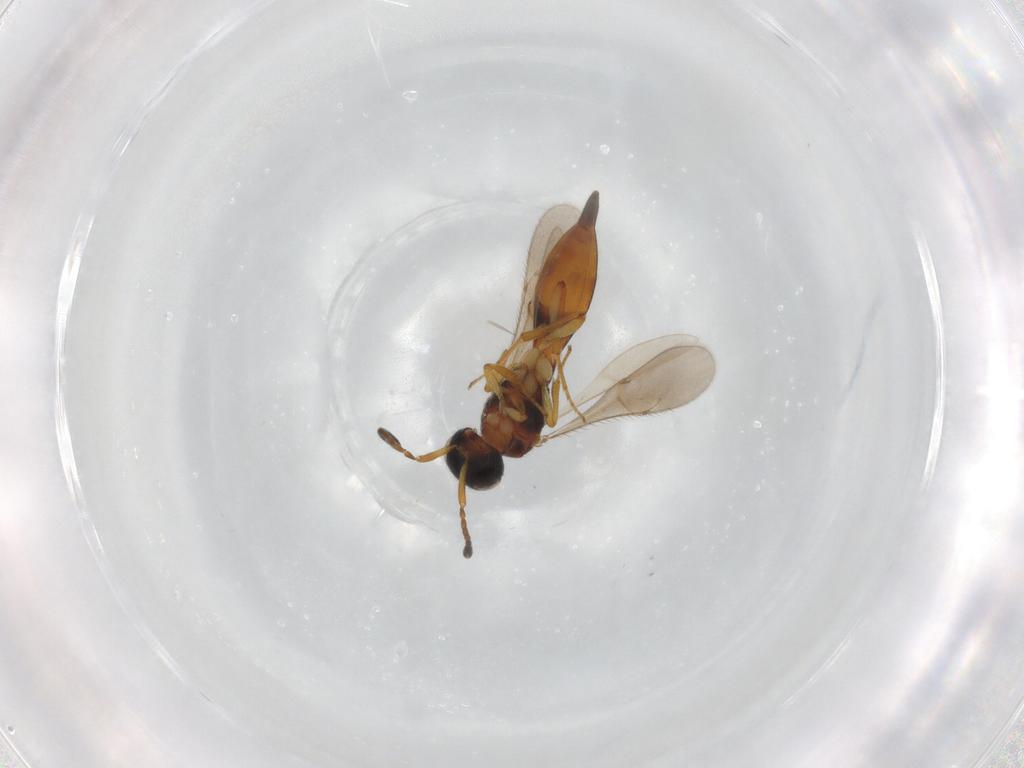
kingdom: Animalia
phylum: Arthropoda
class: Insecta
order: Hymenoptera
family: Scelionidae
